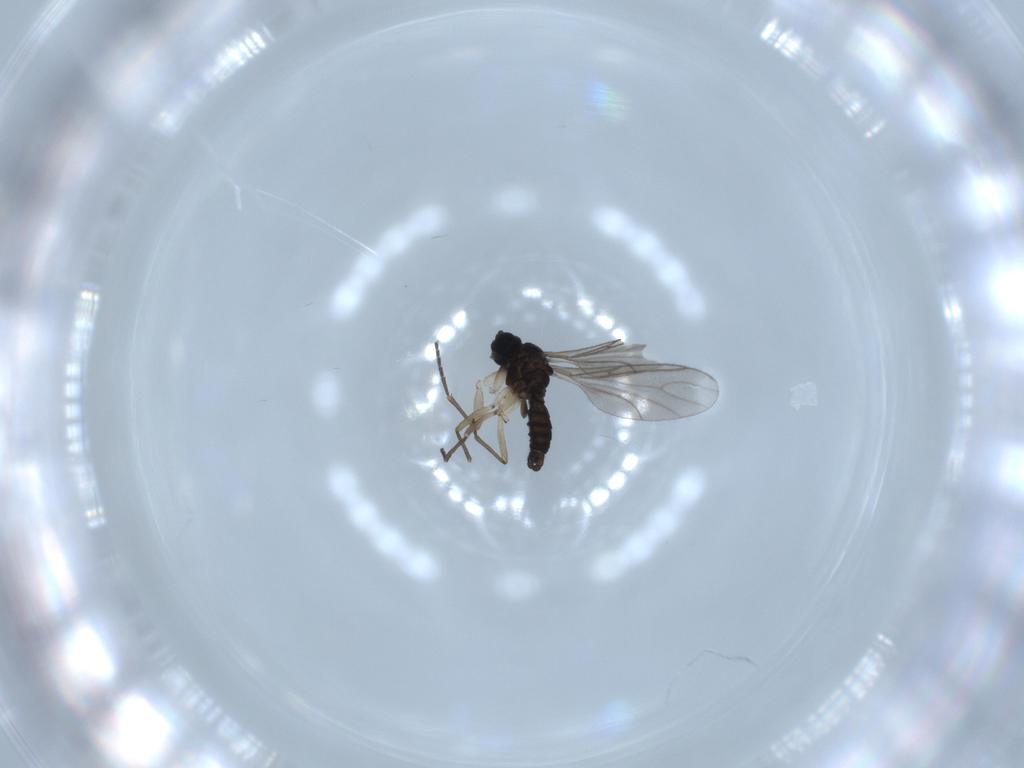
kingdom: Animalia
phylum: Arthropoda
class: Insecta
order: Diptera
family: Sciaridae
